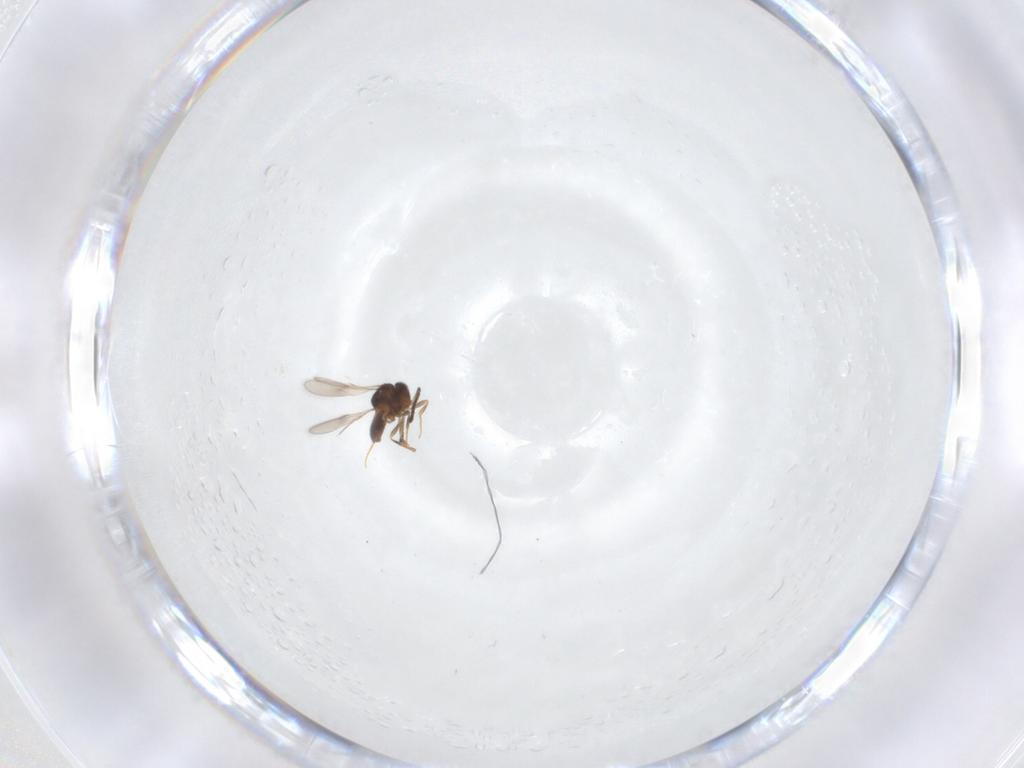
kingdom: Animalia
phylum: Arthropoda
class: Insecta
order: Hymenoptera
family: Scelionidae
